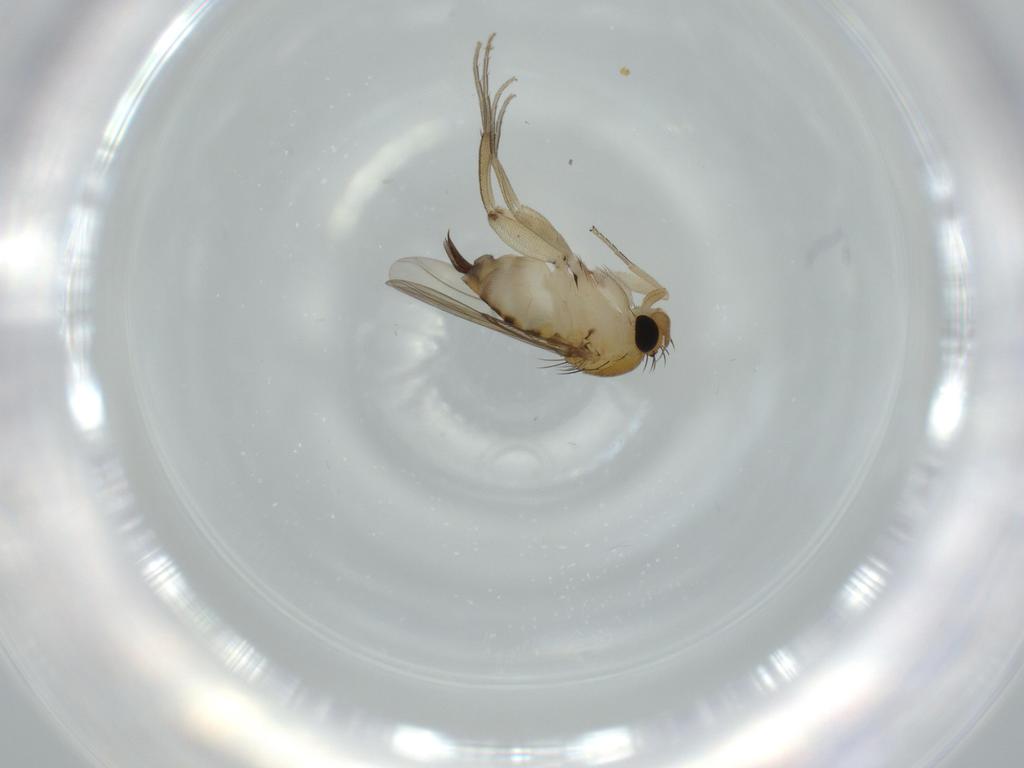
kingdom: Animalia
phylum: Arthropoda
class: Insecta
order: Diptera
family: Phoridae
